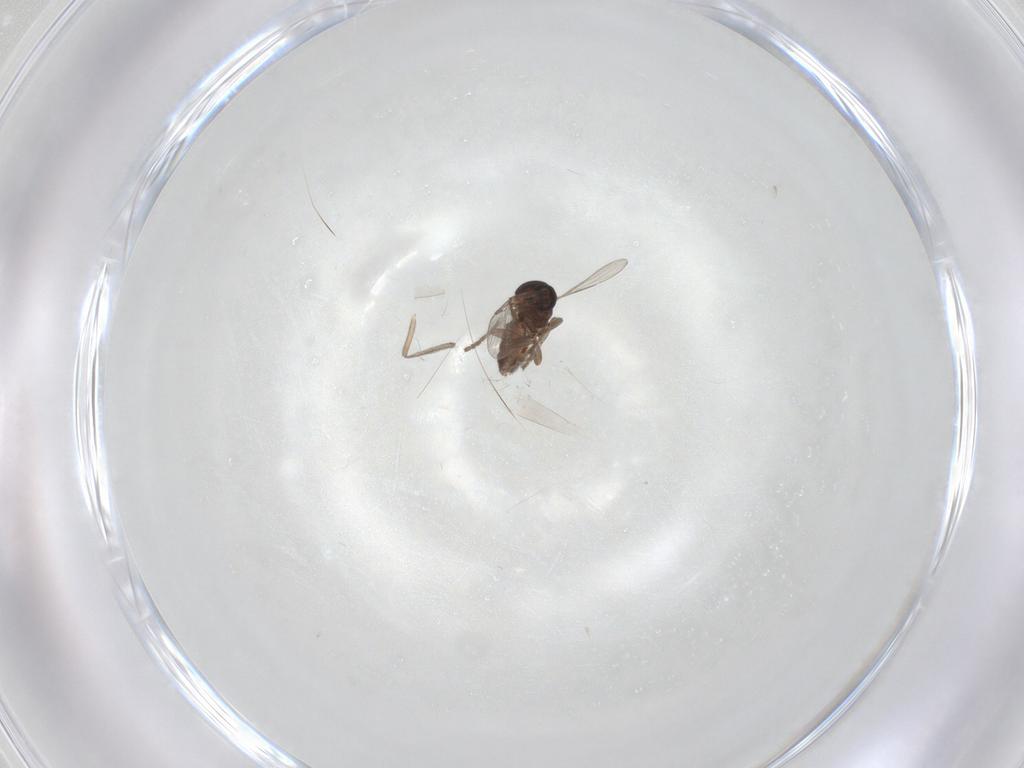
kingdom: Animalia
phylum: Arthropoda
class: Insecta
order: Diptera
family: Ceratopogonidae
